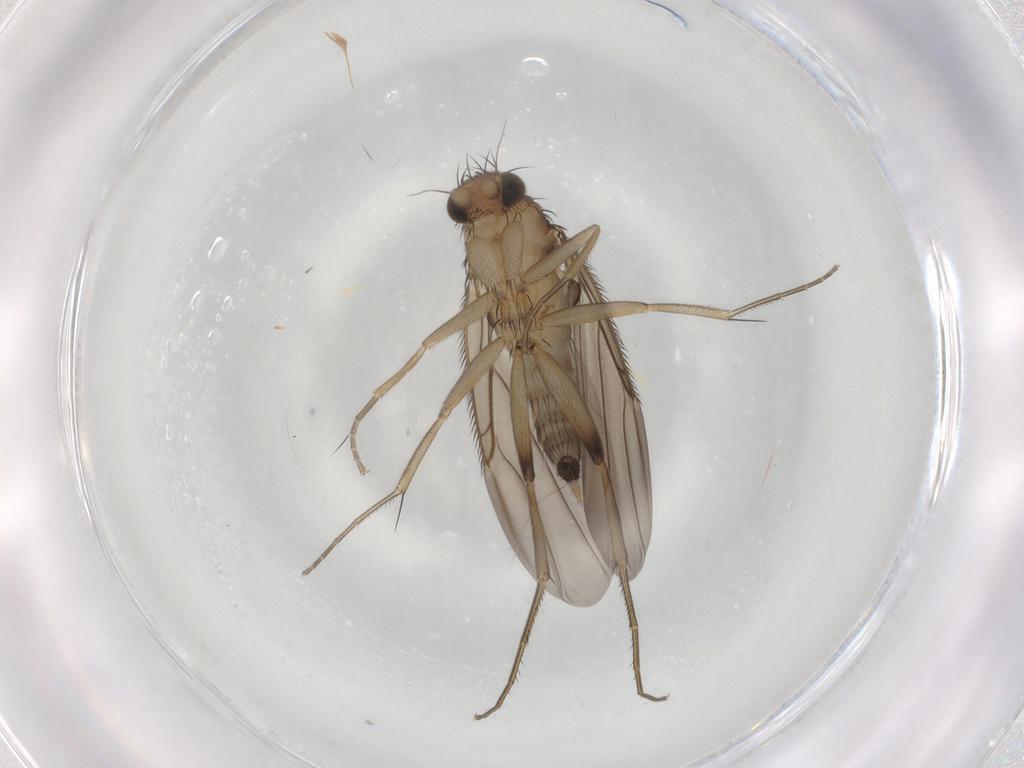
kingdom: Animalia
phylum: Arthropoda
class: Insecta
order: Diptera
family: Phoridae
